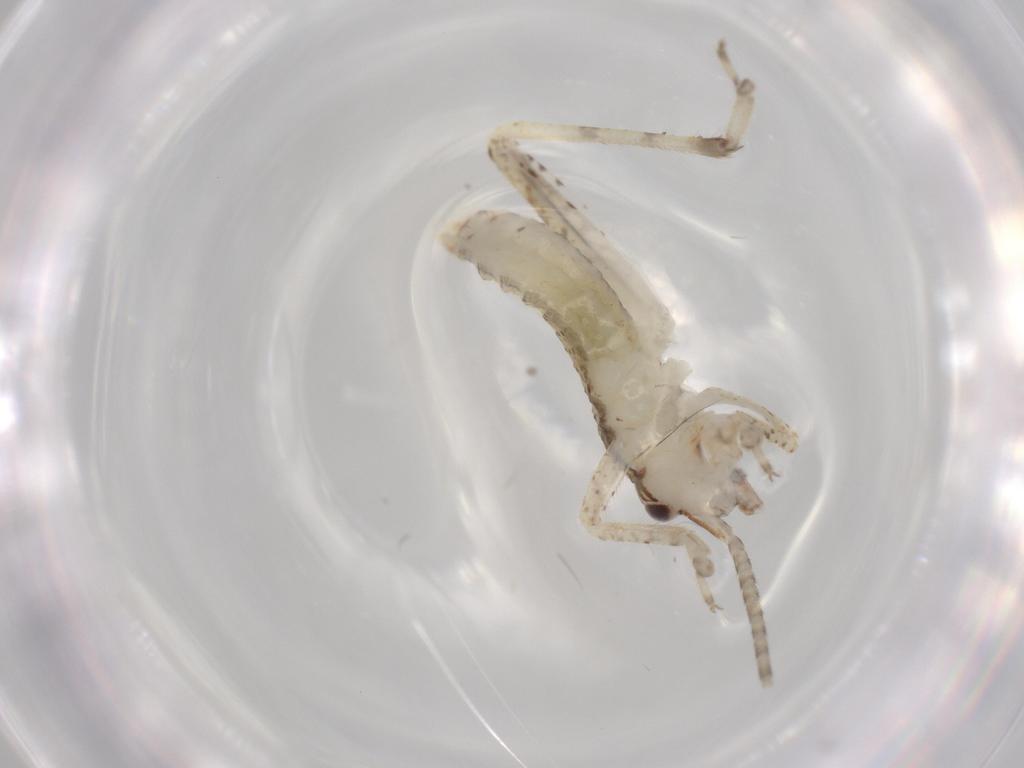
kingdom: Animalia
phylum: Arthropoda
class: Insecta
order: Orthoptera
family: Gryllidae
